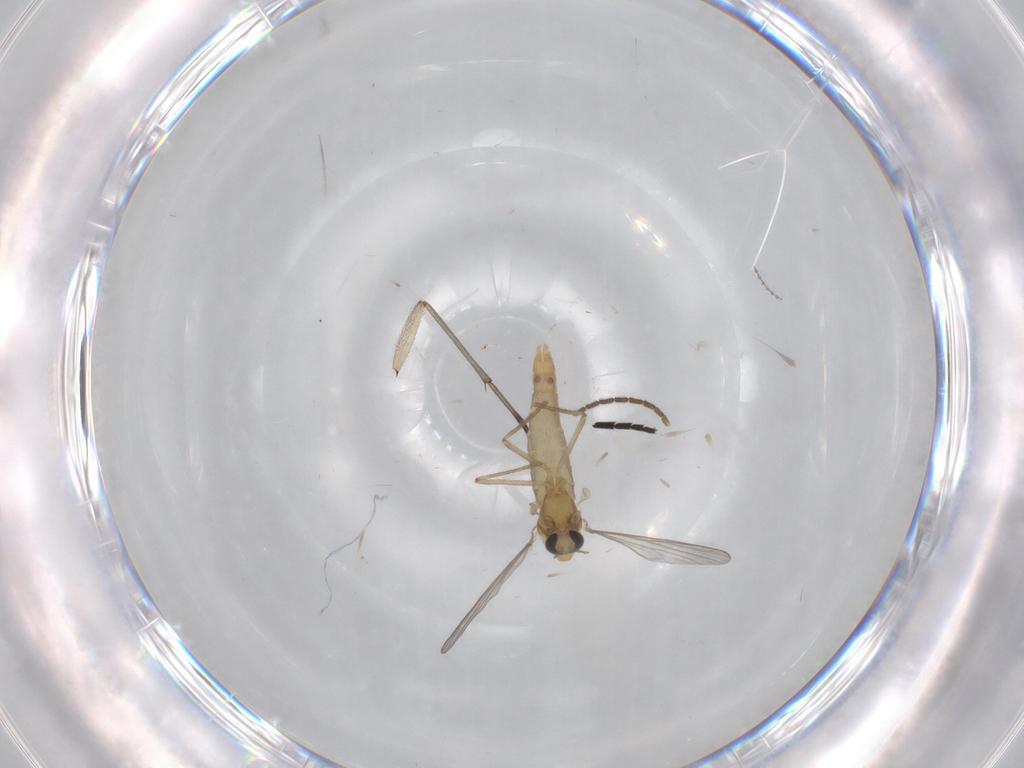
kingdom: Animalia
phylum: Arthropoda
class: Insecta
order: Diptera
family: Chironomidae
